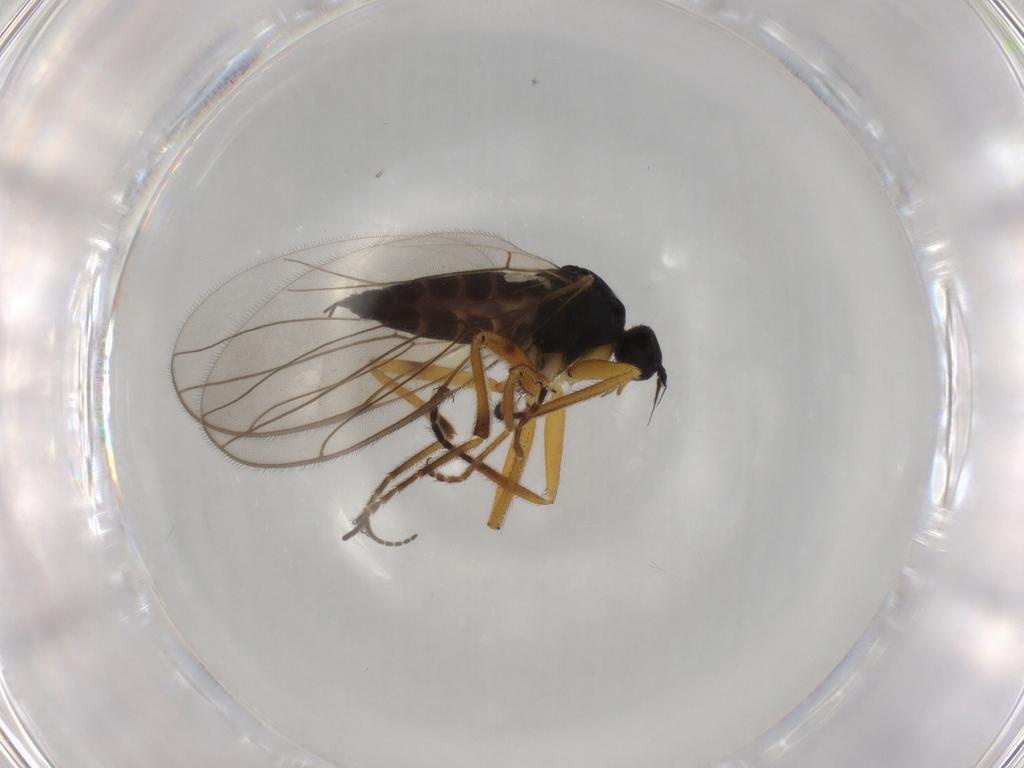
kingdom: Animalia
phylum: Arthropoda
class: Insecta
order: Diptera
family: Hybotidae
